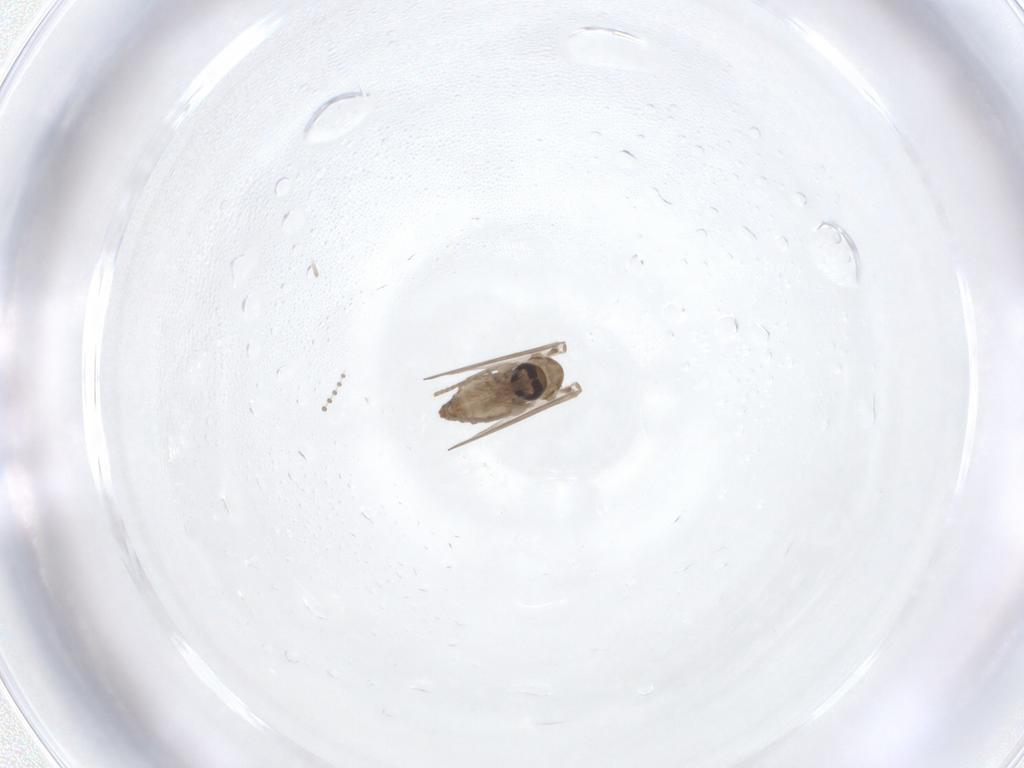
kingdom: Animalia
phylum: Arthropoda
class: Insecta
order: Diptera
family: Psychodidae
